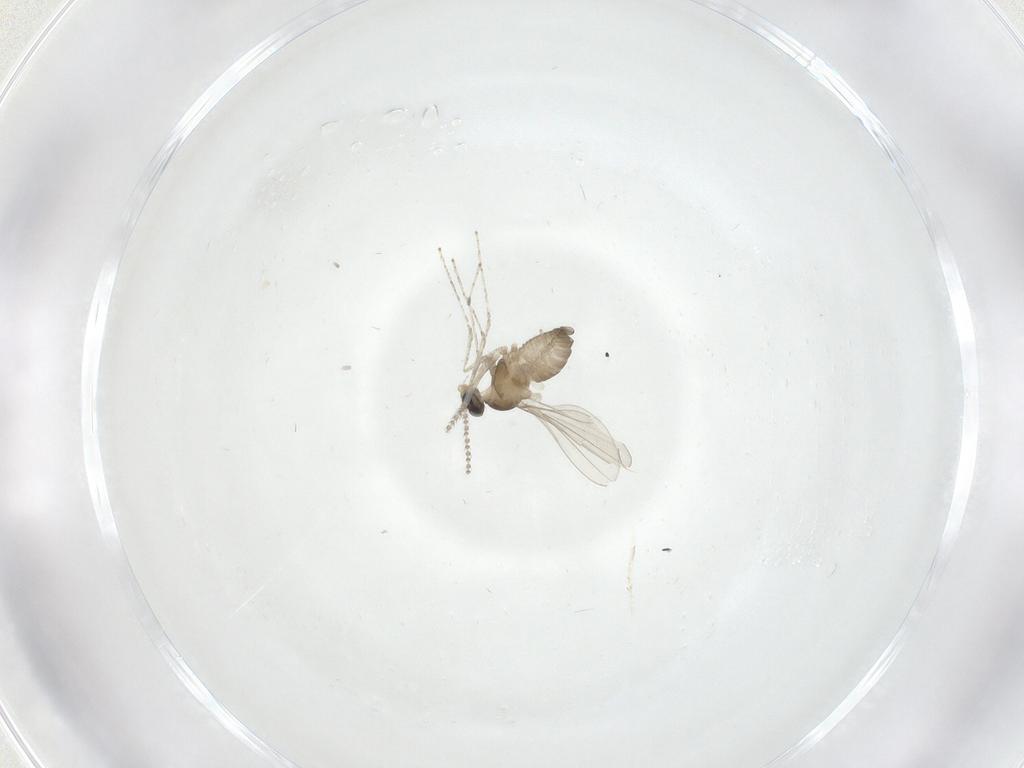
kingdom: Animalia
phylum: Arthropoda
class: Insecta
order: Diptera
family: Cecidomyiidae
